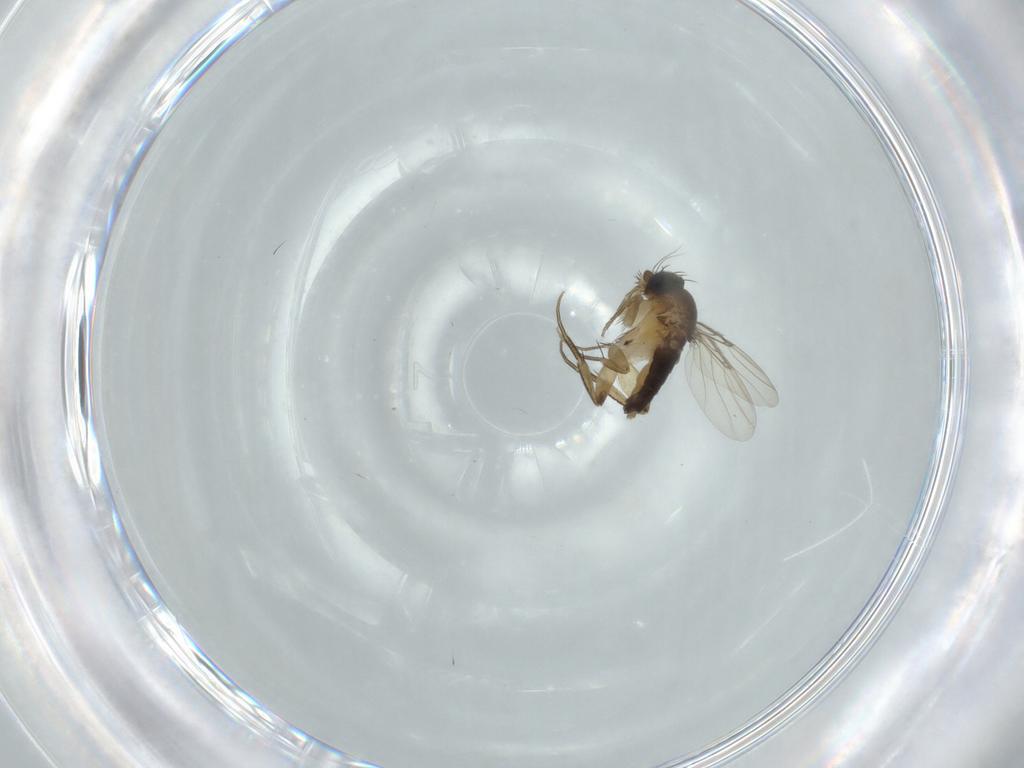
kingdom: Animalia
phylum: Arthropoda
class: Insecta
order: Diptera
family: Phoridae
